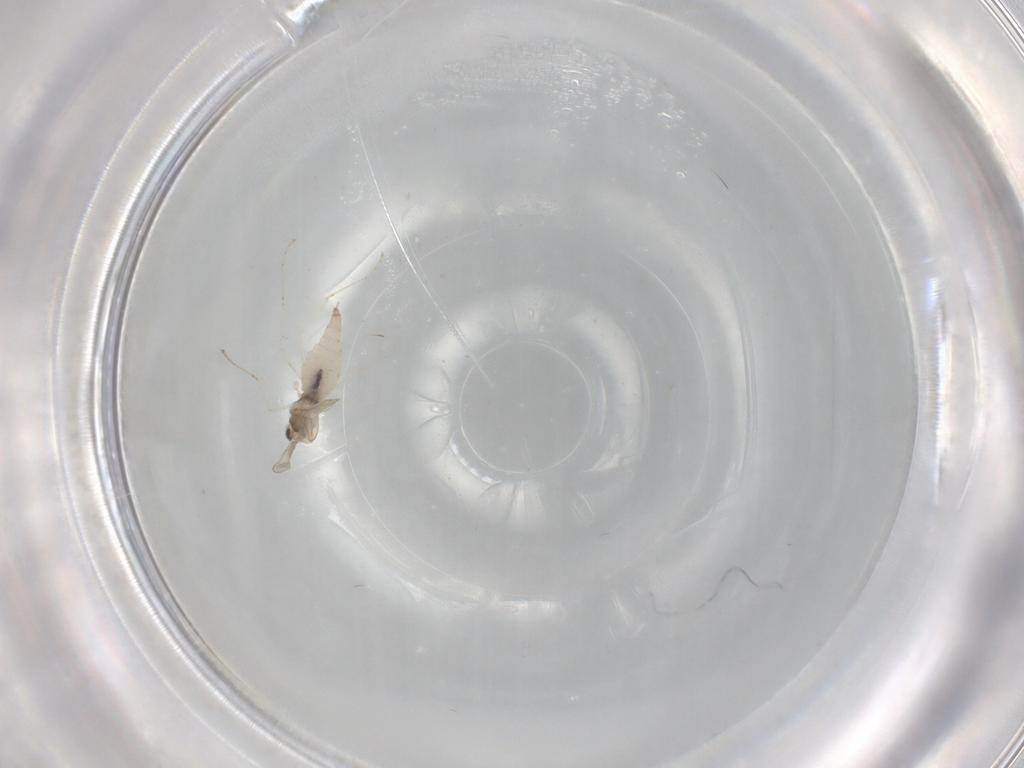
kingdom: Animalia
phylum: Arthropoda
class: Insecta
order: Diptera
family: Cecidomyiidae
